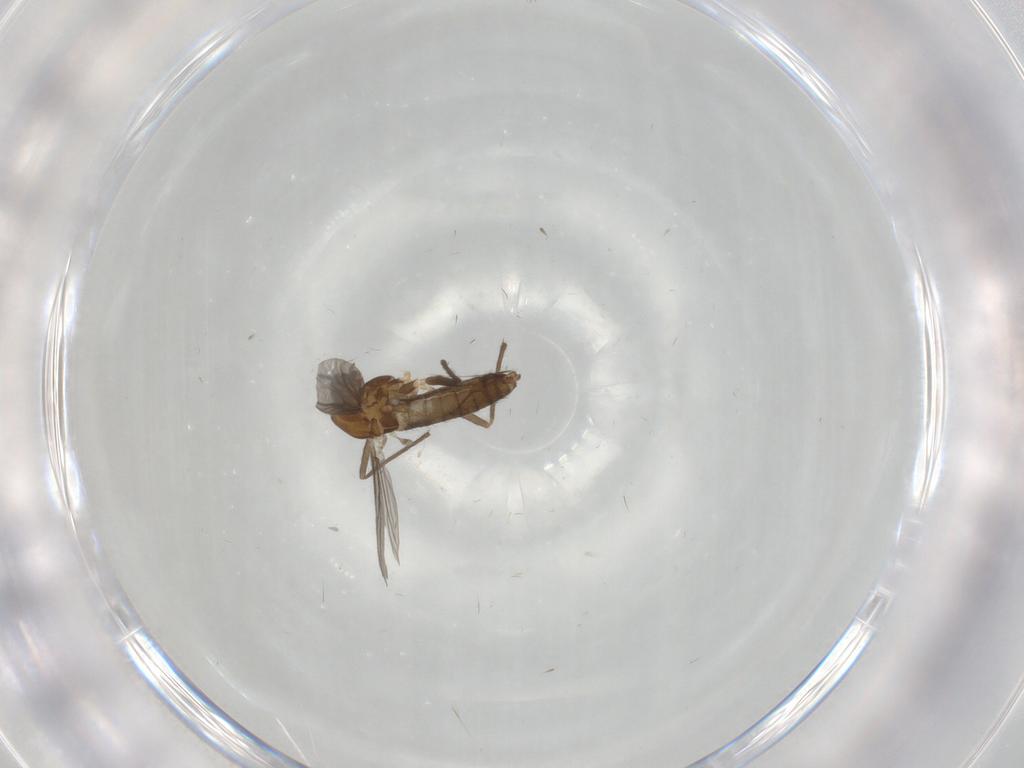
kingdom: Animalia
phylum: Arthropoda
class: Insecta
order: Diptera
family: Chironomidae
